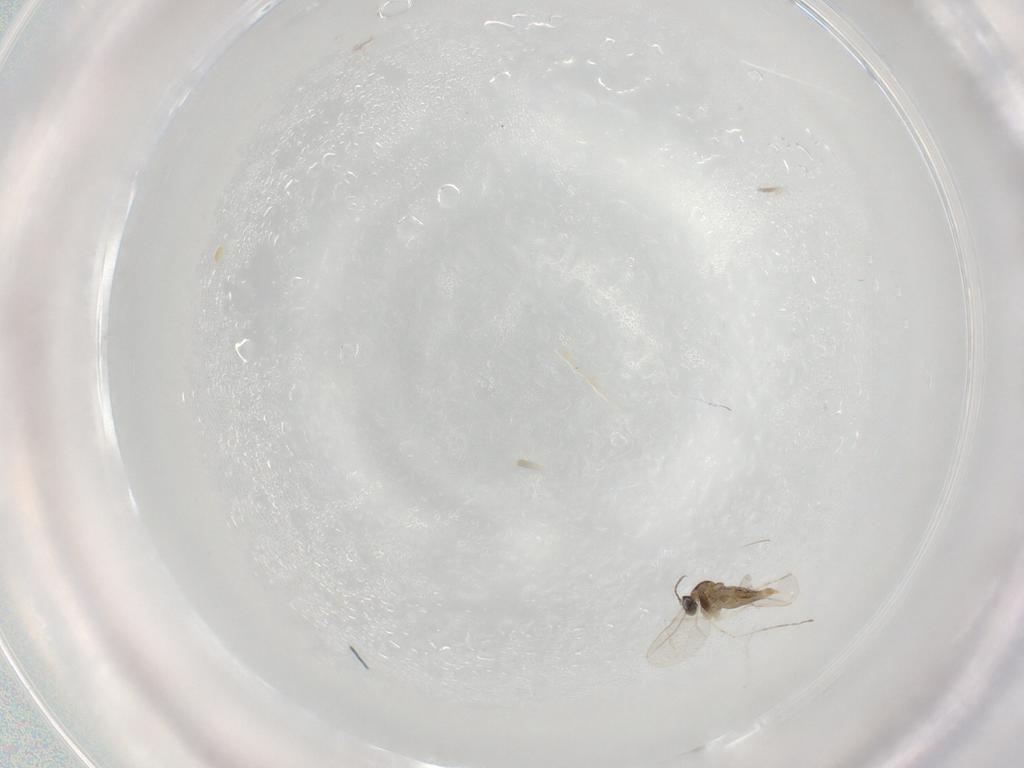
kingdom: Animalia
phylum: Arthropoda
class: Insecta
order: Diptera
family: Cecidomyiidae
